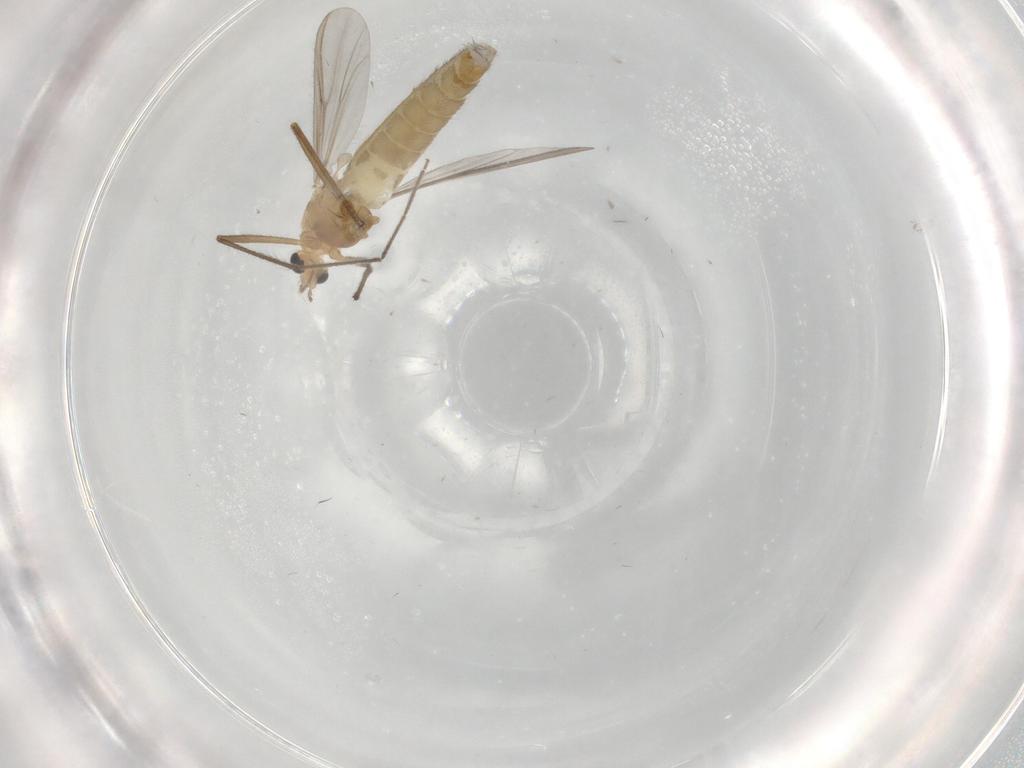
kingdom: Animalia
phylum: Arthropoda
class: Insecta
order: Diptera
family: Chironomidae
